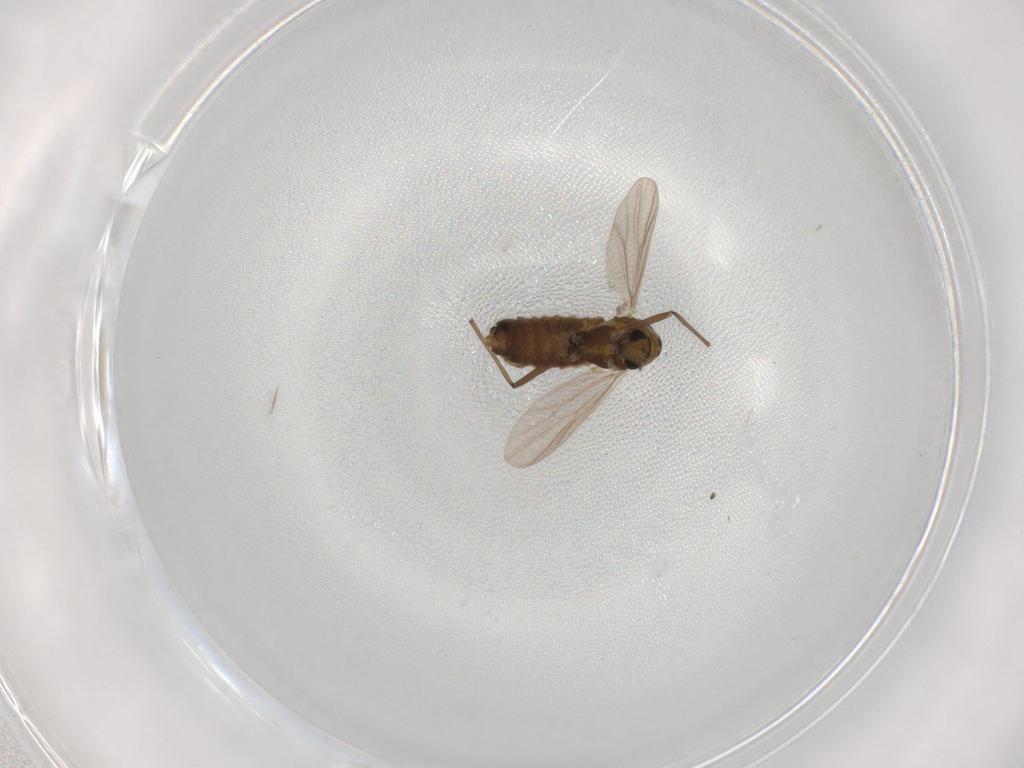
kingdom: Animalia
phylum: Arthropoda
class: Insecta
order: Diptera
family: Chironomidae
